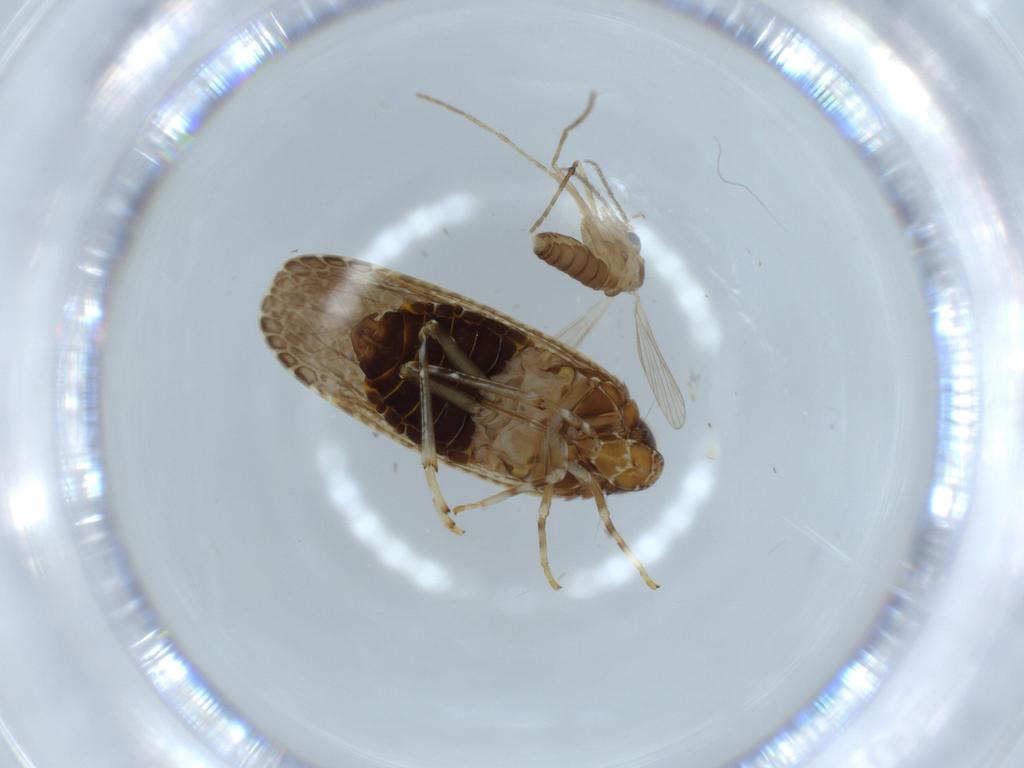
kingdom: Animalia
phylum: Arthropoda
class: Insecta
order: Diptera
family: Psychodidae
